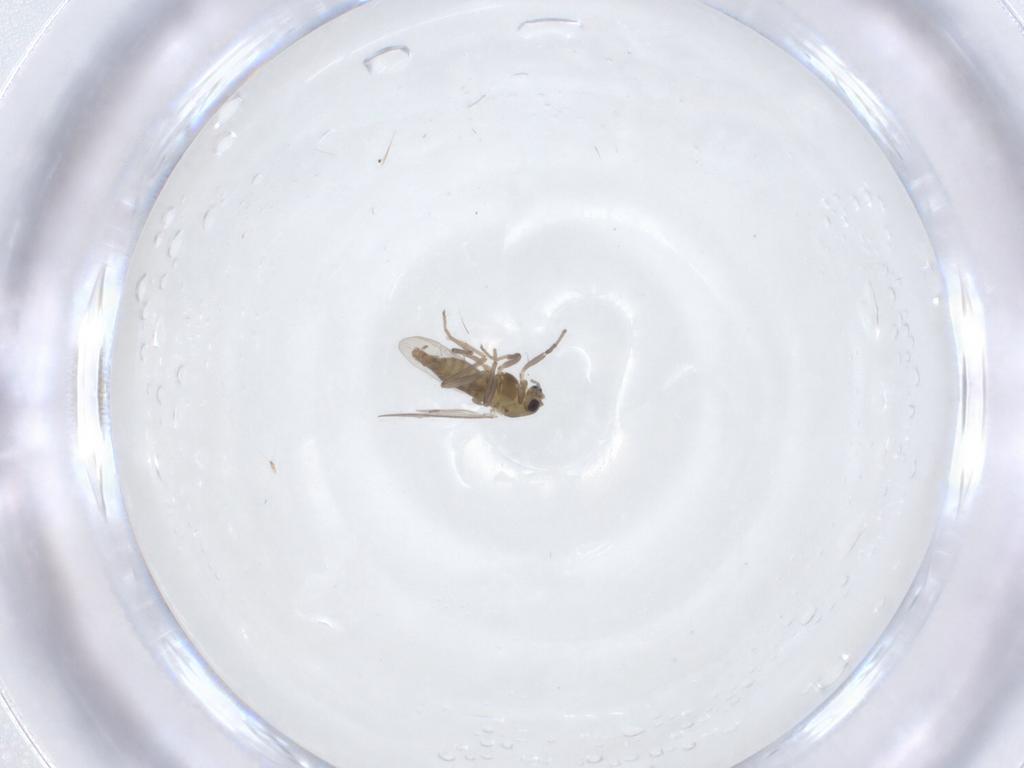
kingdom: Animalia
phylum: Arthropoda
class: Insecta
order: Diptera
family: Chironomidae
